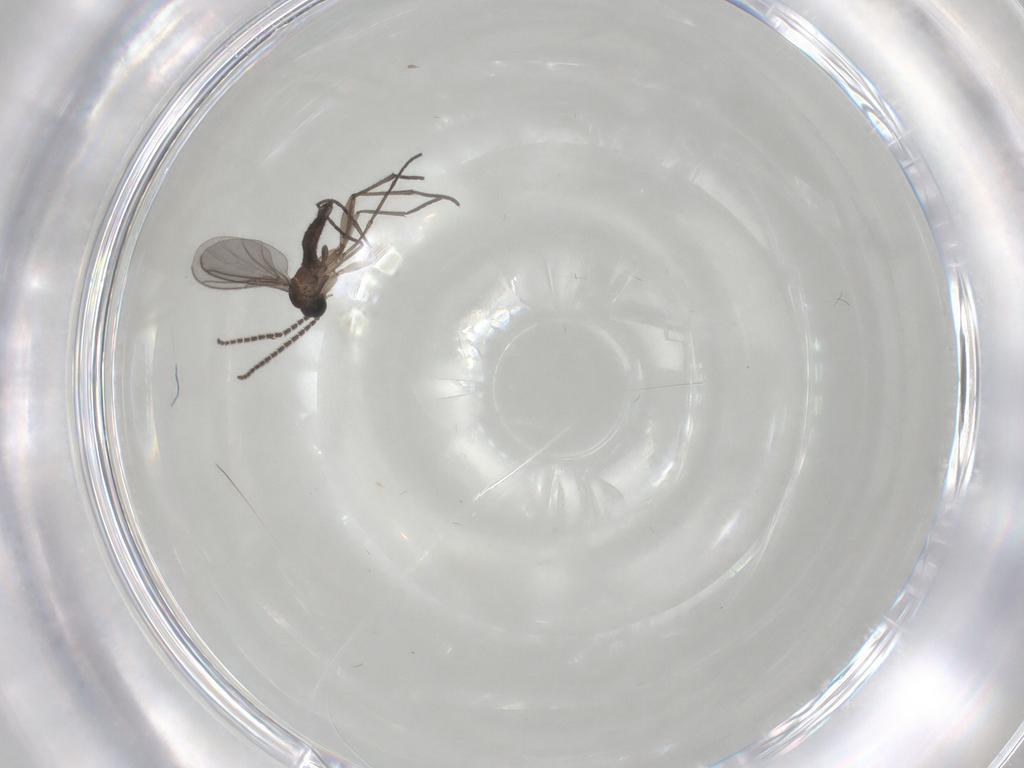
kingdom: Animalia
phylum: Arthropoda
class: Insecta
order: Diptera
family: Sciaridae
